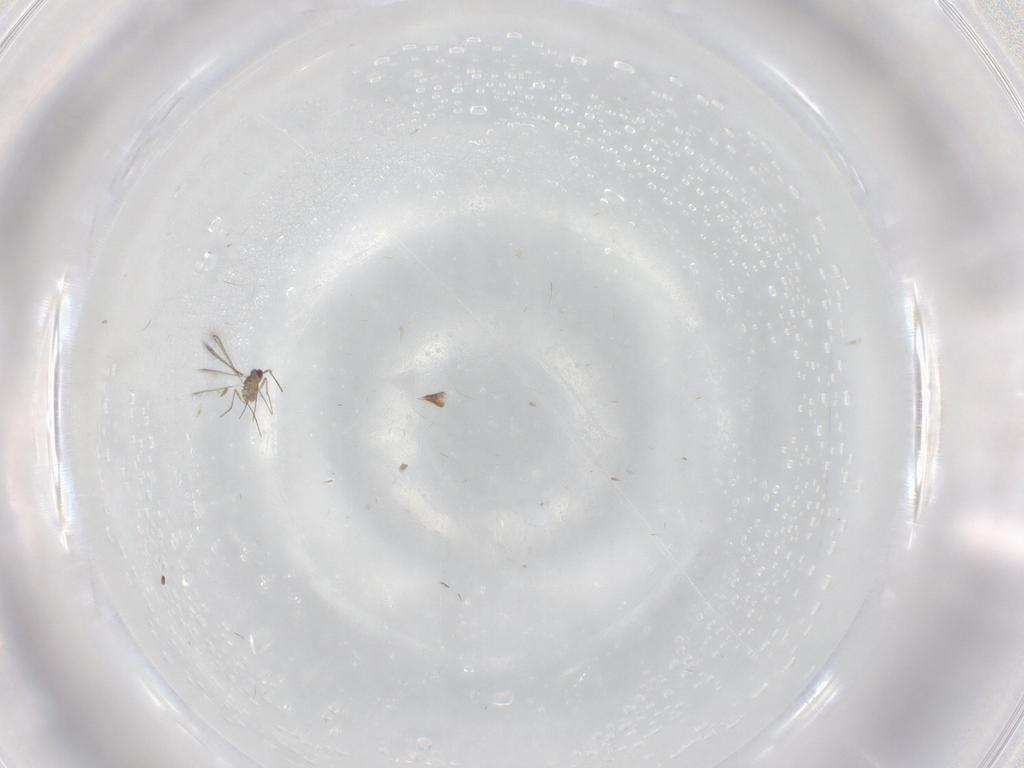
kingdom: Animalia
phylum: Arthropoda
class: Insecta
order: Hymenoptera
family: Mymaridae
